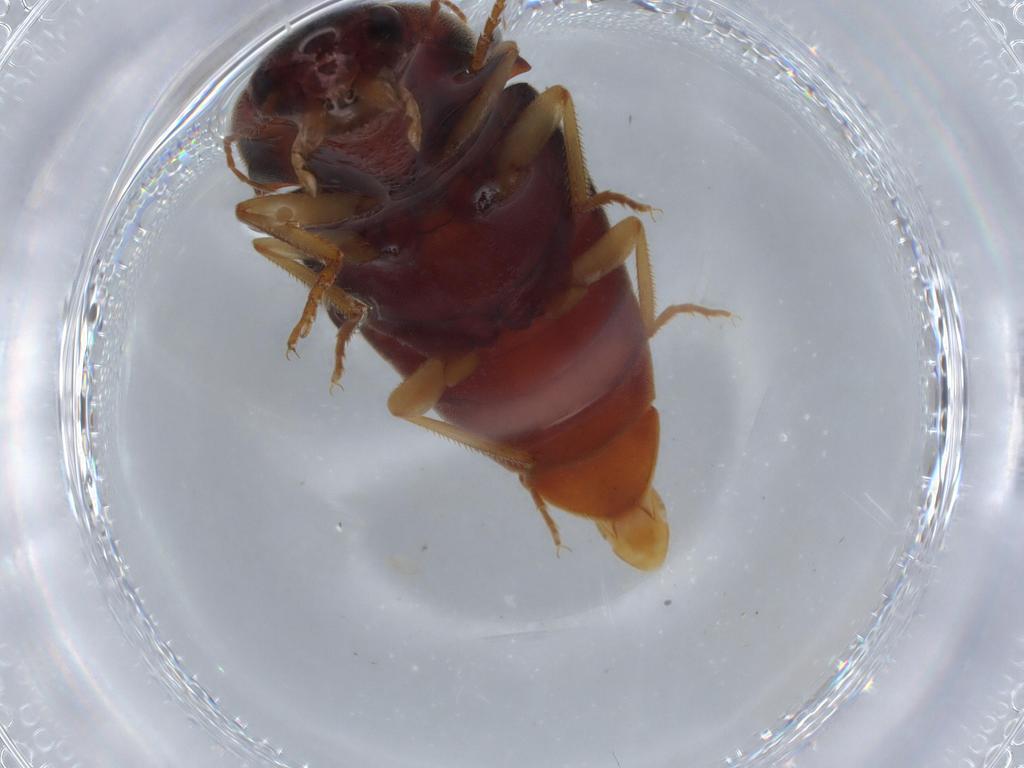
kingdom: Animalia
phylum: Arthropoda
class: Insecta
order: Coleoptera
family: Elateridae
